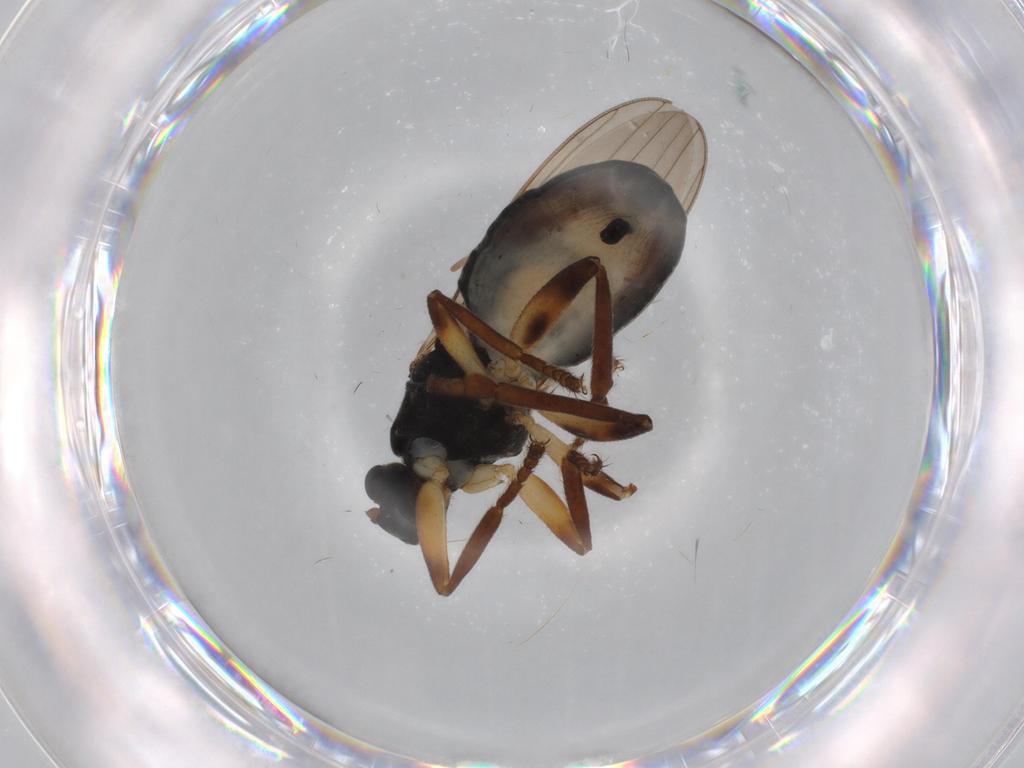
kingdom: Animalia
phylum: Arthropoda
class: Insecta
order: Diptera
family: Sphaeroceridae
